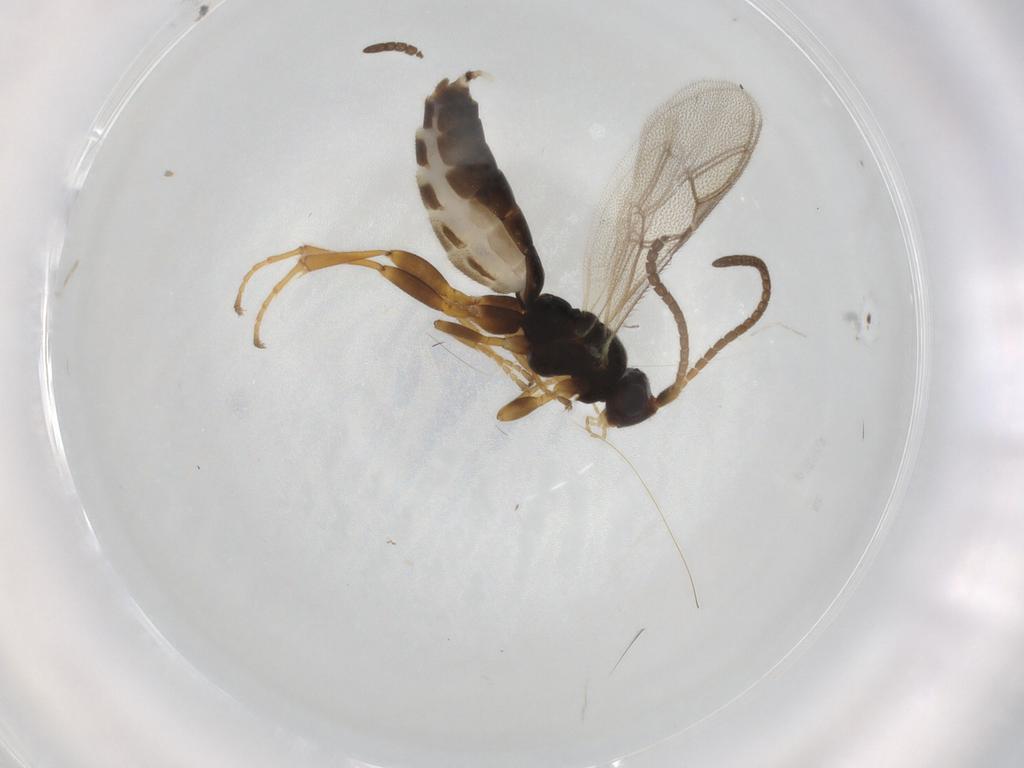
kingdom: Animalia
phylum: Arthropoda
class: Insecta
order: Hymenoptera
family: Ichneumonidae
